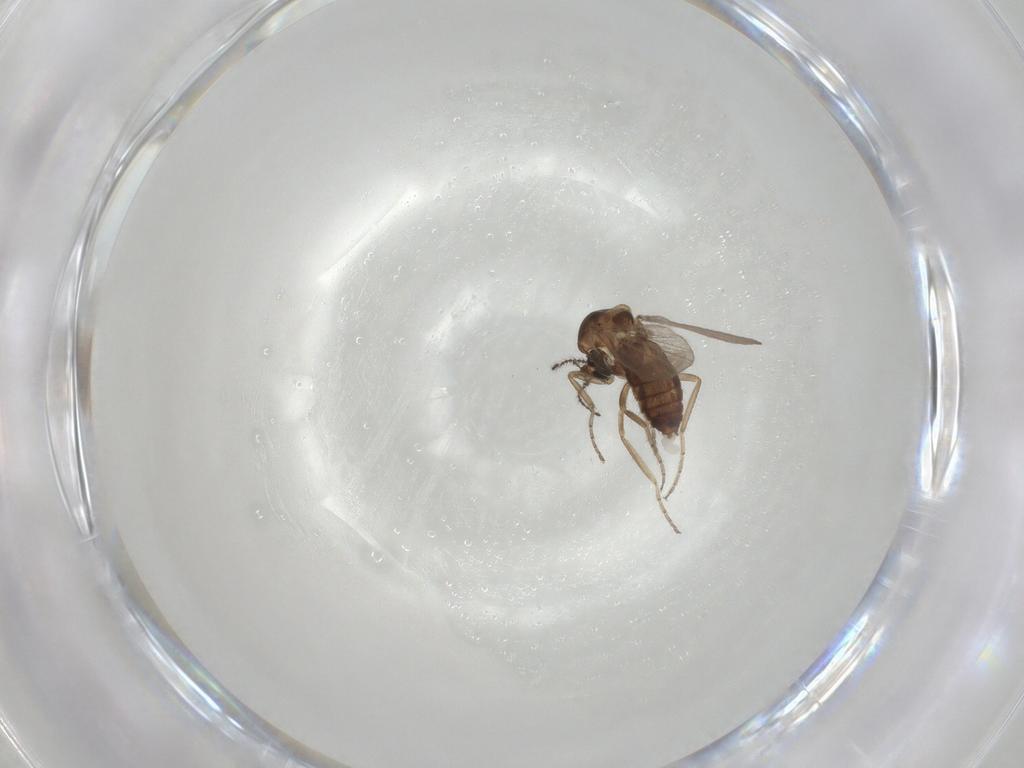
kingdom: Animalia
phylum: Arthropoda
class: Insecta
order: Diptera
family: Ceratopogonidae
